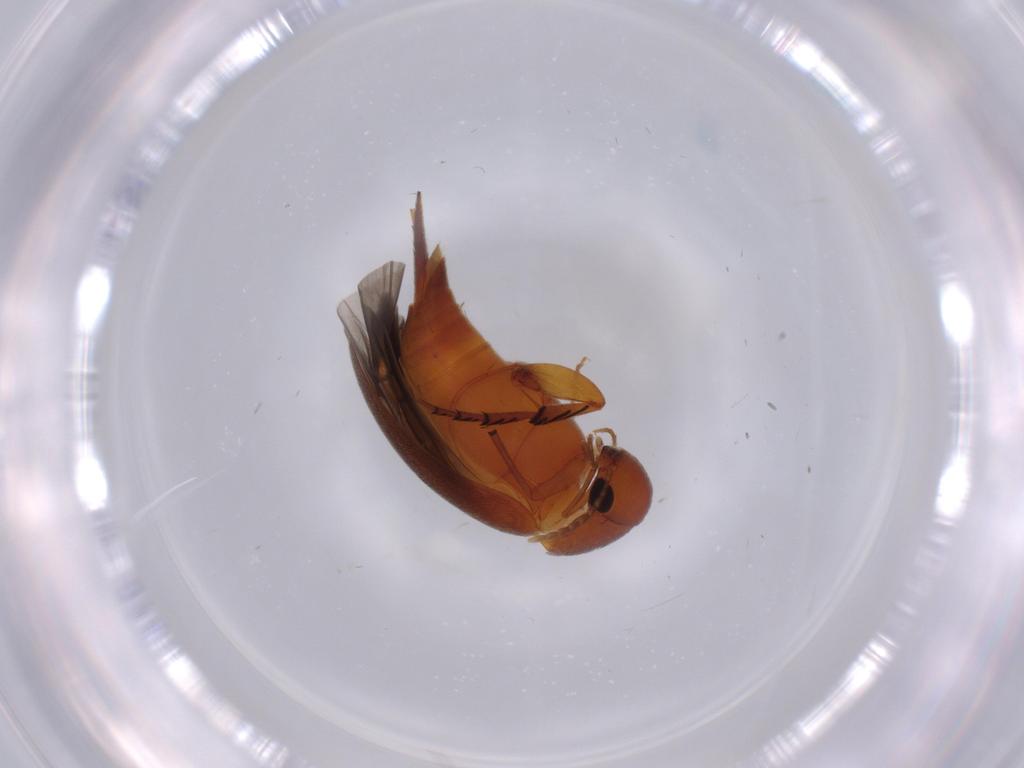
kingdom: Animalia
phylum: Arthropoda
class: Insecta
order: Coleoptera
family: Mordellidae
